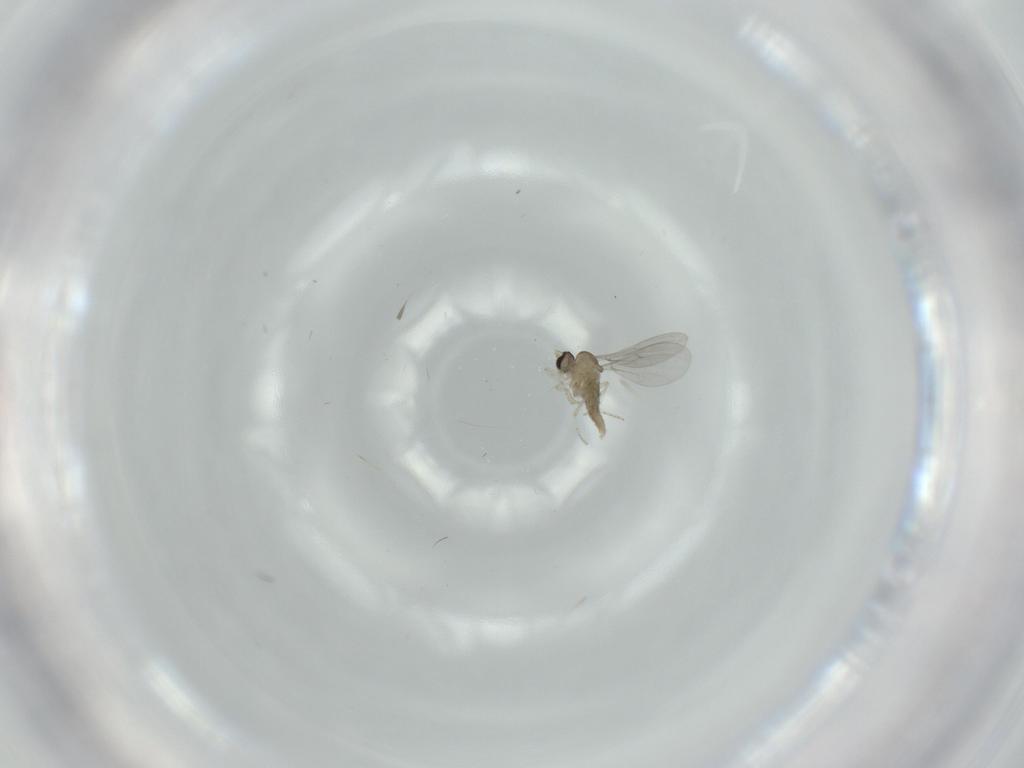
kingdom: Animalia
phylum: Arthropoda
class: Insecta
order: Diptera
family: Cecidomyiidae
